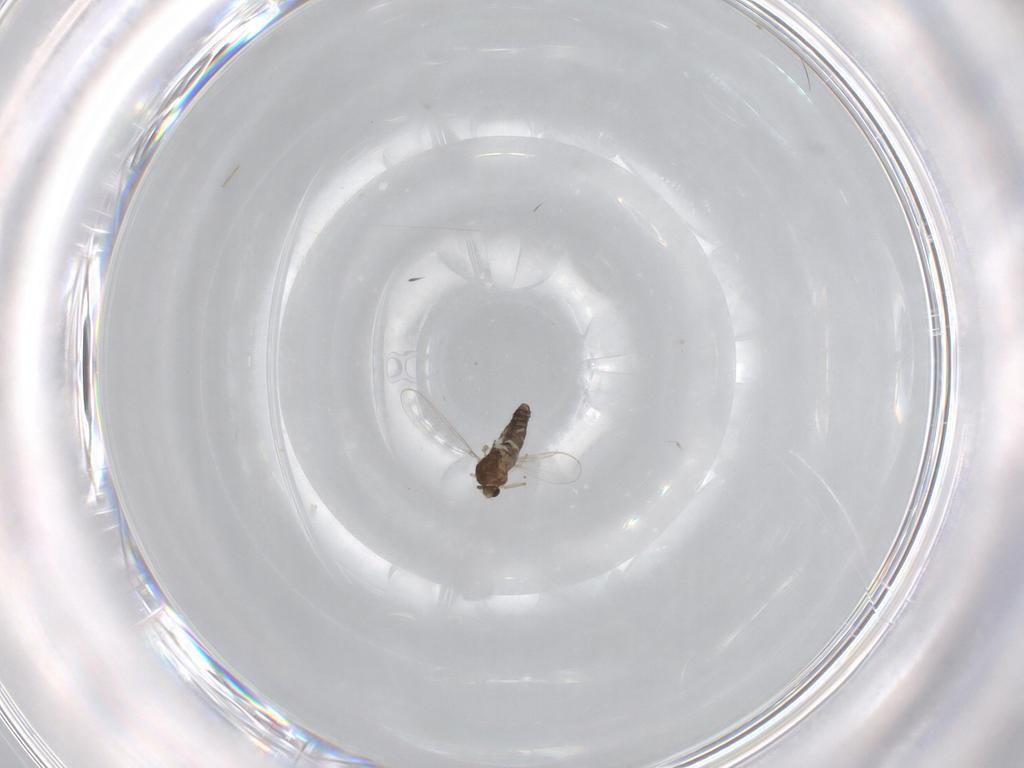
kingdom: Animalia
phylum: Arthropoda
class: Insecta
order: Diptera
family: Chironomidae
